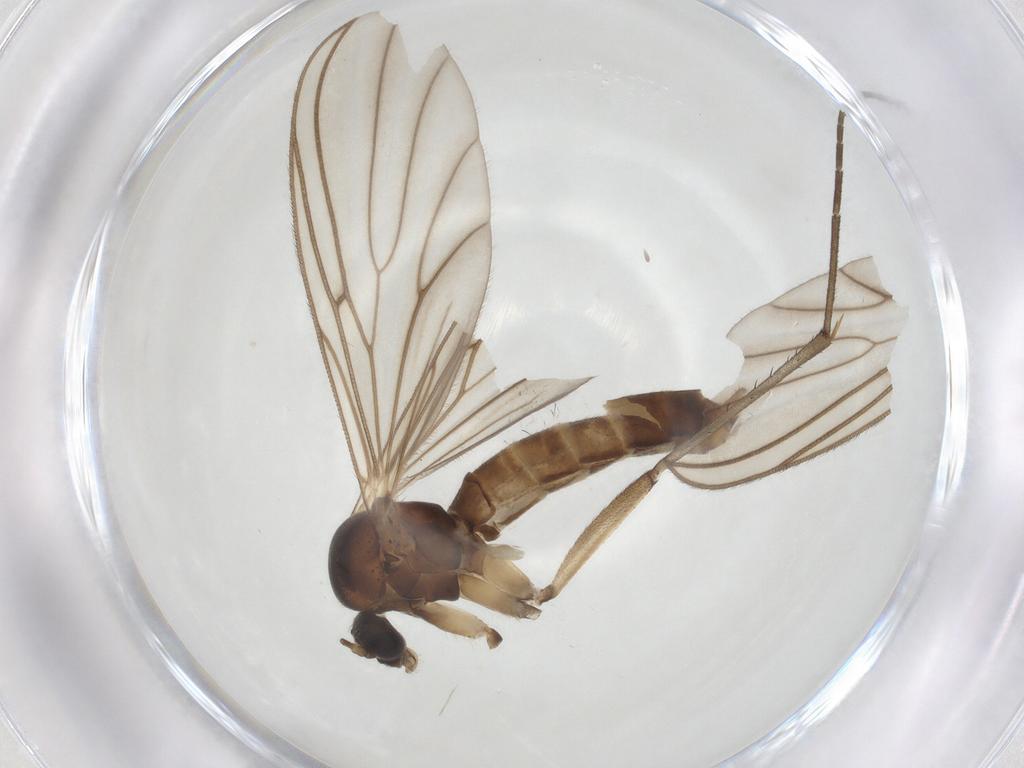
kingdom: Animalia
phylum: Arthropoda
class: Insecta
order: Diptera
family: Mycetophilidae
